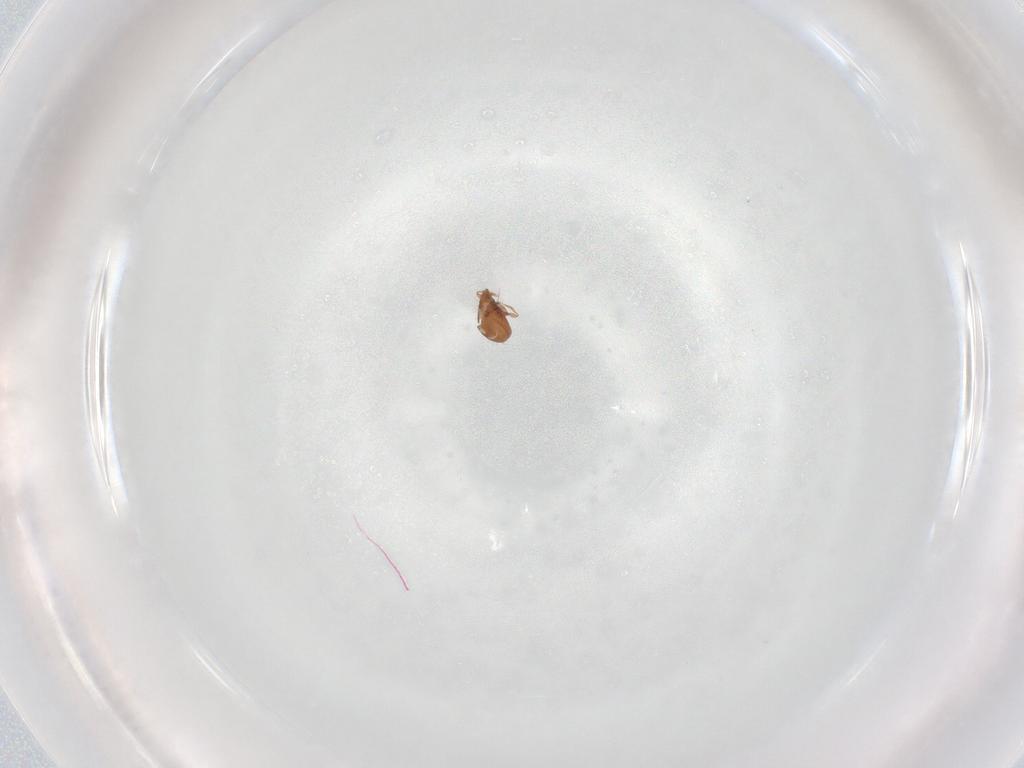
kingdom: Animalia
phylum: Arthropoda
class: Arachnida
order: Sarcoptiformes
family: Oribatulidae
